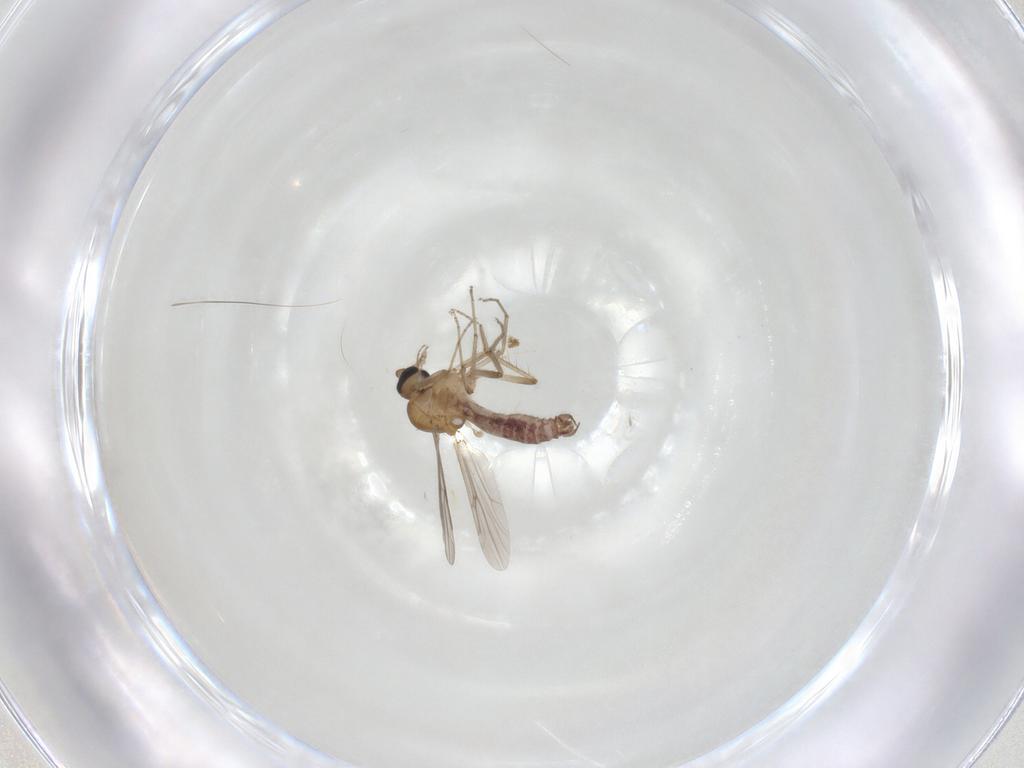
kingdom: Animalia
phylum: Arthropoda
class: Insecta
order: Diptera
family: Ceratopogonidae
